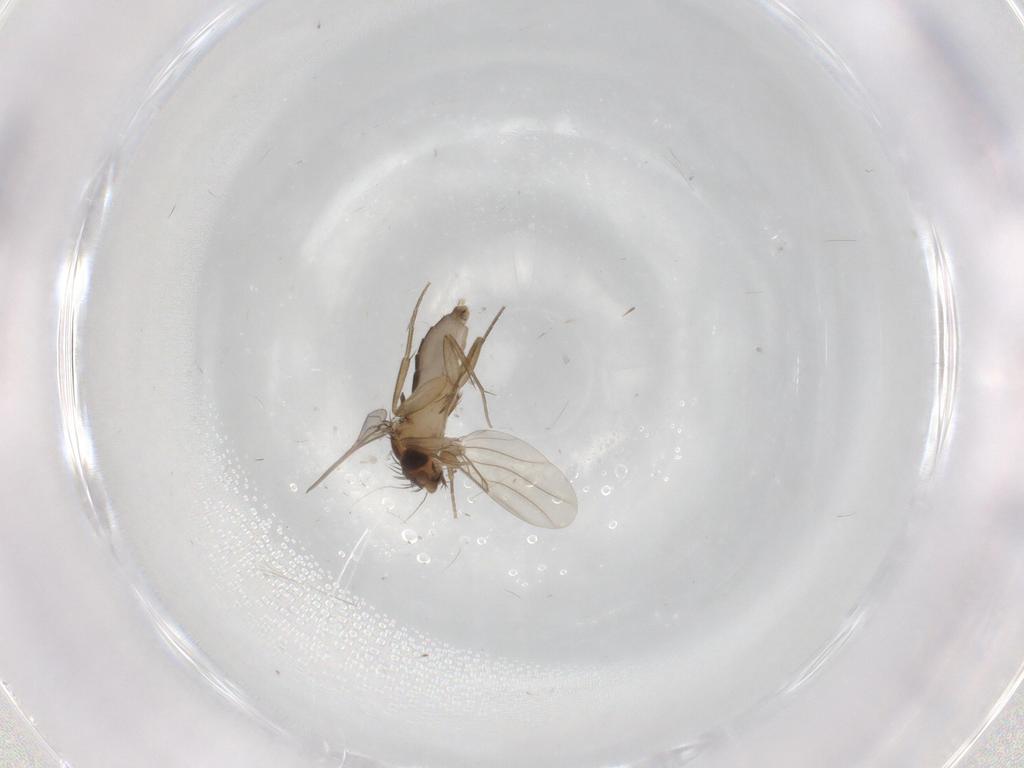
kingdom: Animalia
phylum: Arthropoda
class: Insecta
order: Diptera
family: Phoridae
